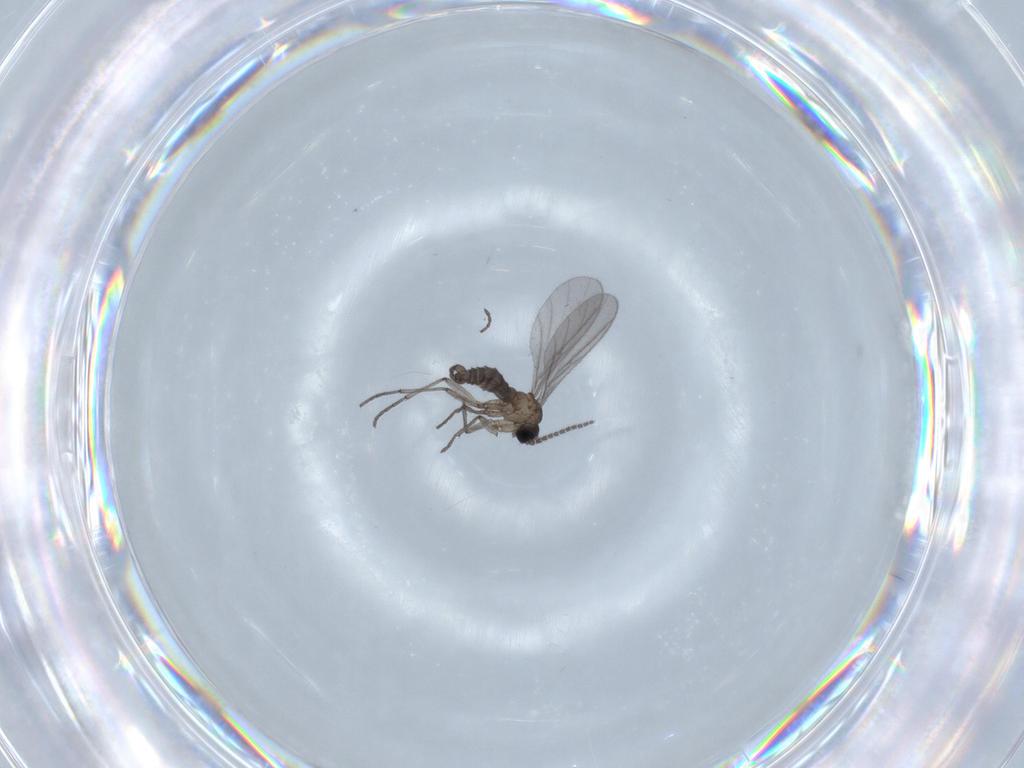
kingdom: Animalia
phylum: Arthropoda
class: Insecta
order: Diptera
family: Sciaridae
